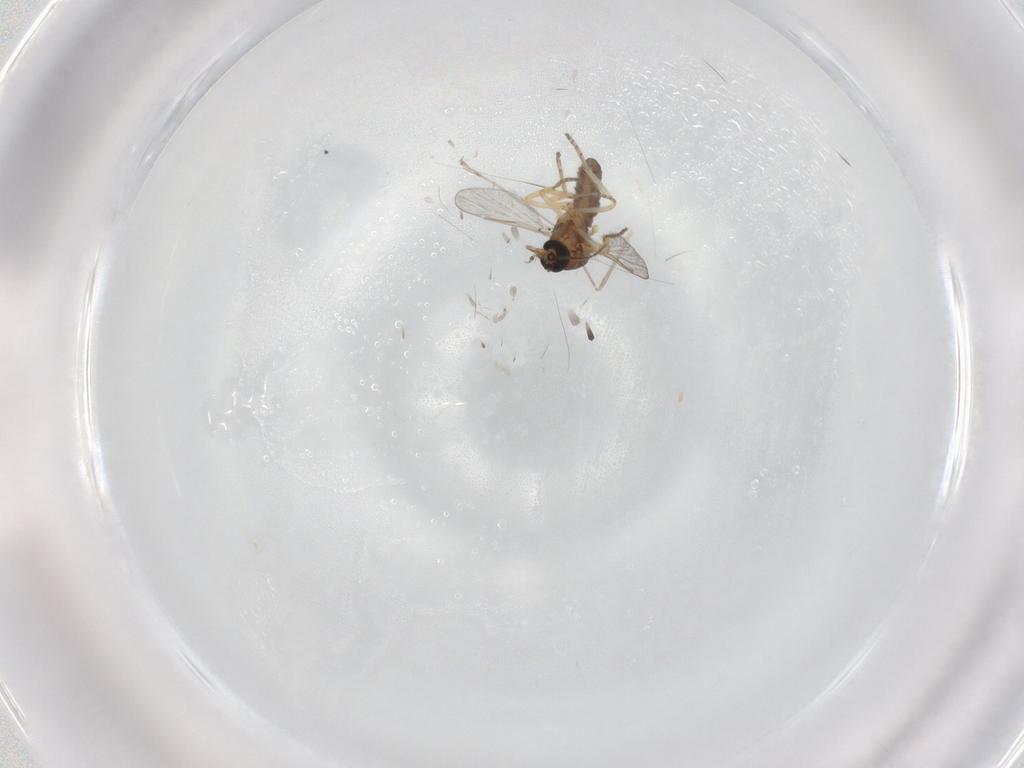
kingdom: Animalia
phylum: Arthropoda
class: Insecta
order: Diptera
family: Ceratopogonidae
